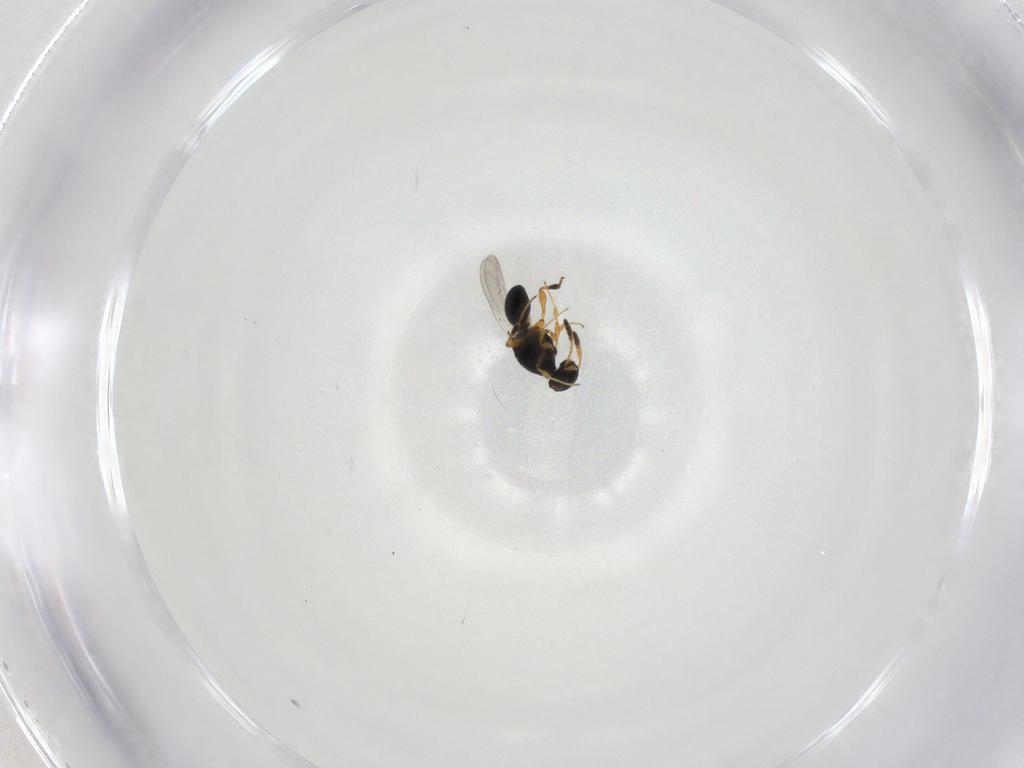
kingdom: Animalia
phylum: Arthropoda
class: Insecta
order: Hymenoptera
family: Platygastridae
